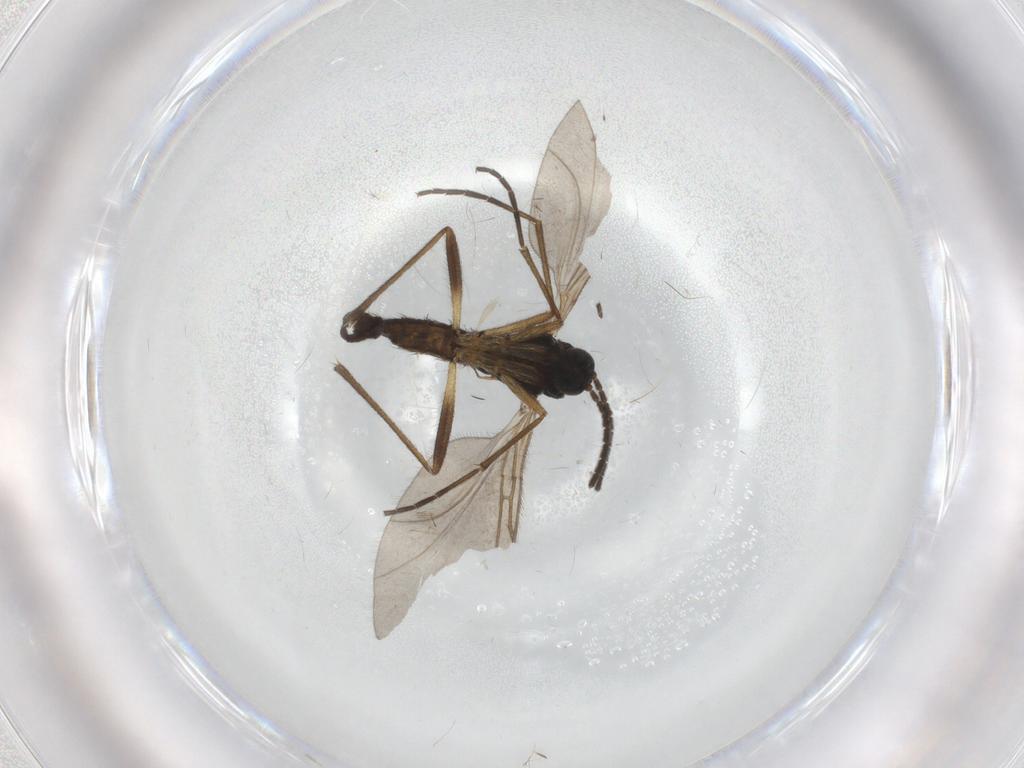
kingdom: Animalia
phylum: Arthropoda
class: Insecta
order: Diptera
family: Sciaridae
